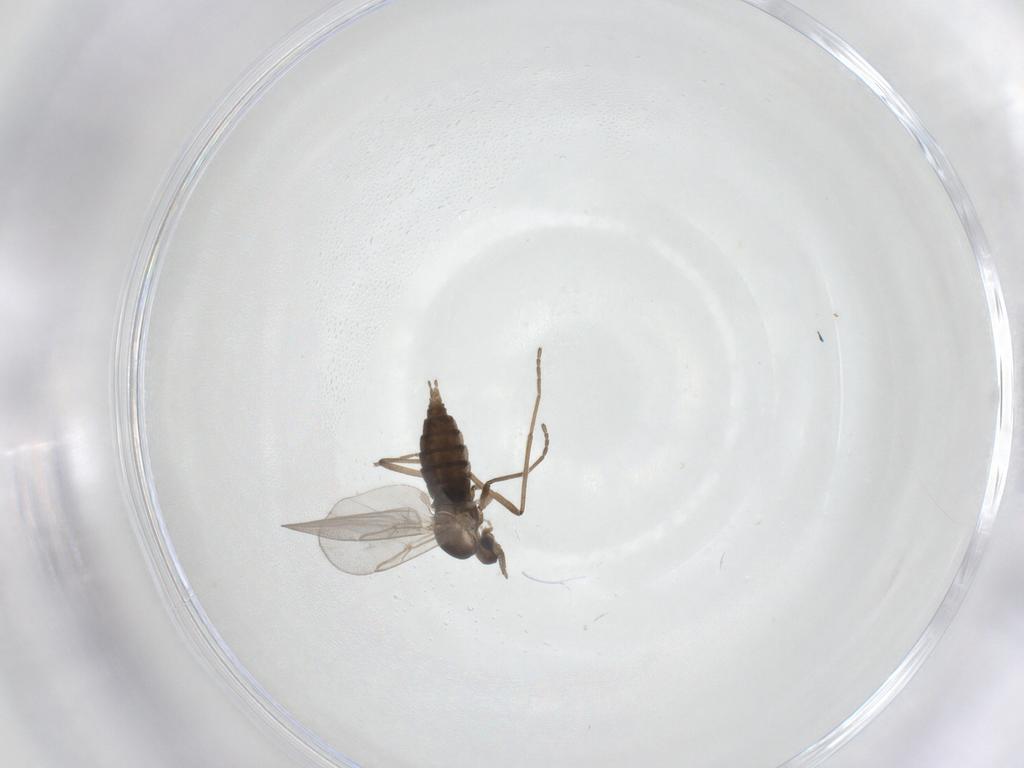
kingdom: Animalia
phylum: Arthropoda
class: Insecta
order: Diptera
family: Cecidomyiidae
